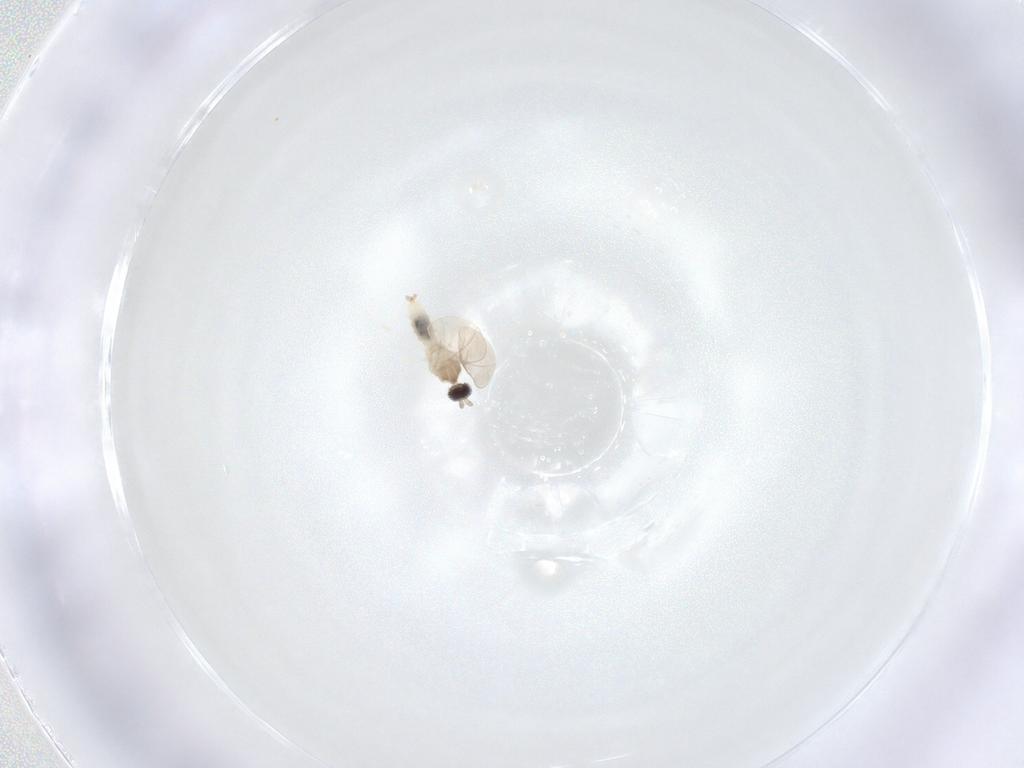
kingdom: Animalia
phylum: Arthropoda
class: Insecta
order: Diptera
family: Cecidomyiidae
